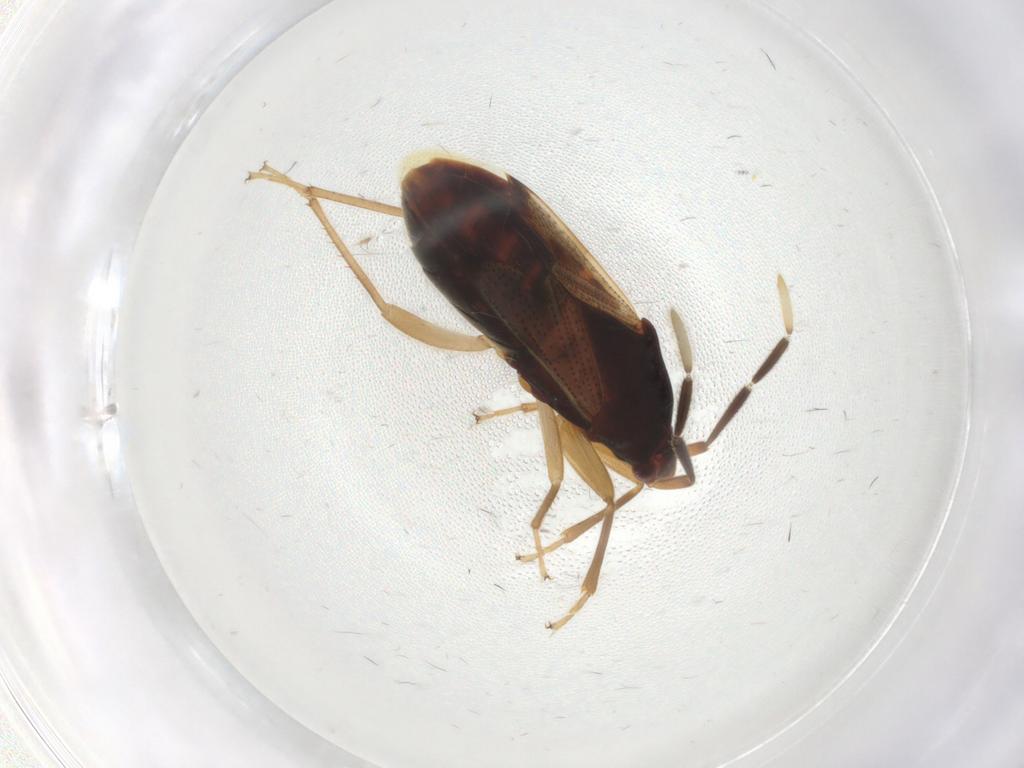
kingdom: Animalia
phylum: Arthropoda
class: Insecta
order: Hemiptera
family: Rhyparochromidae
